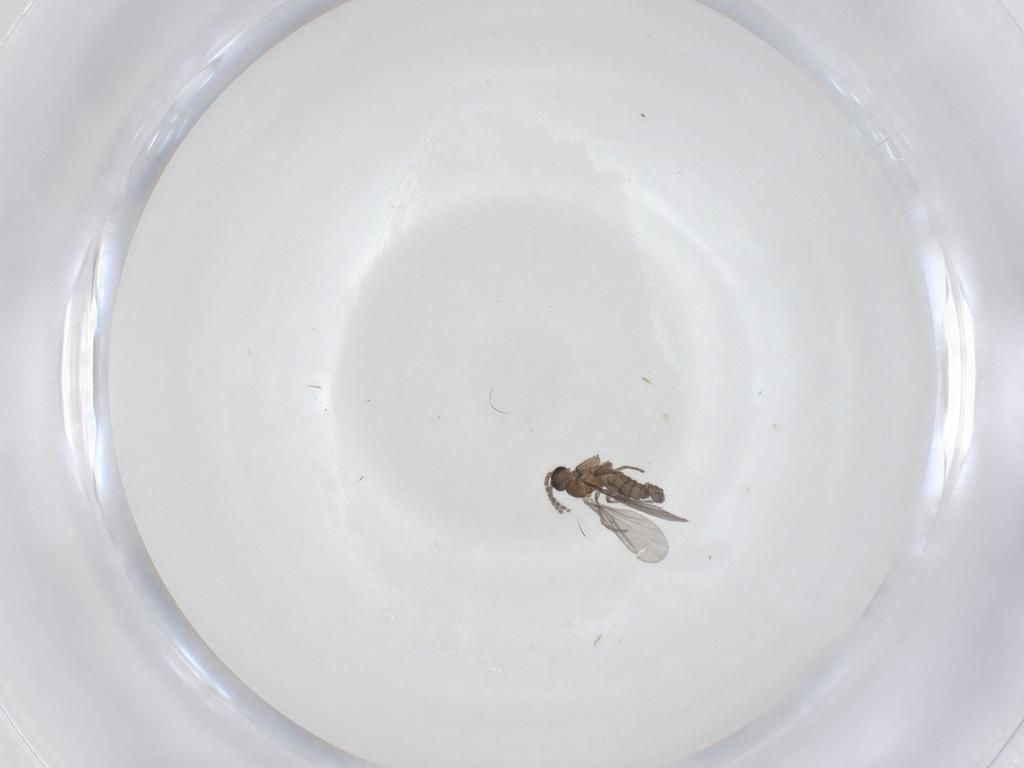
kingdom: Animalia
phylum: Arthropoda
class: Insecta
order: Diptera
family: Sciaridae
